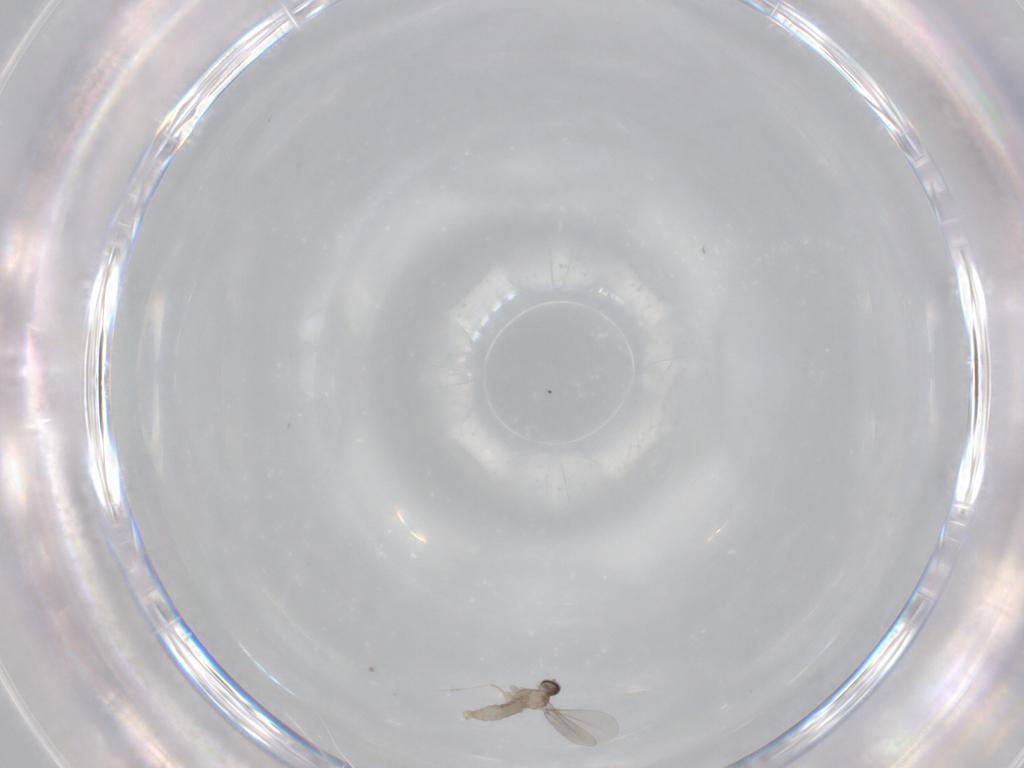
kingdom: Animalia
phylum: Arthropoda
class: Insecta
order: Diptera
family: Cecidomyiidae
